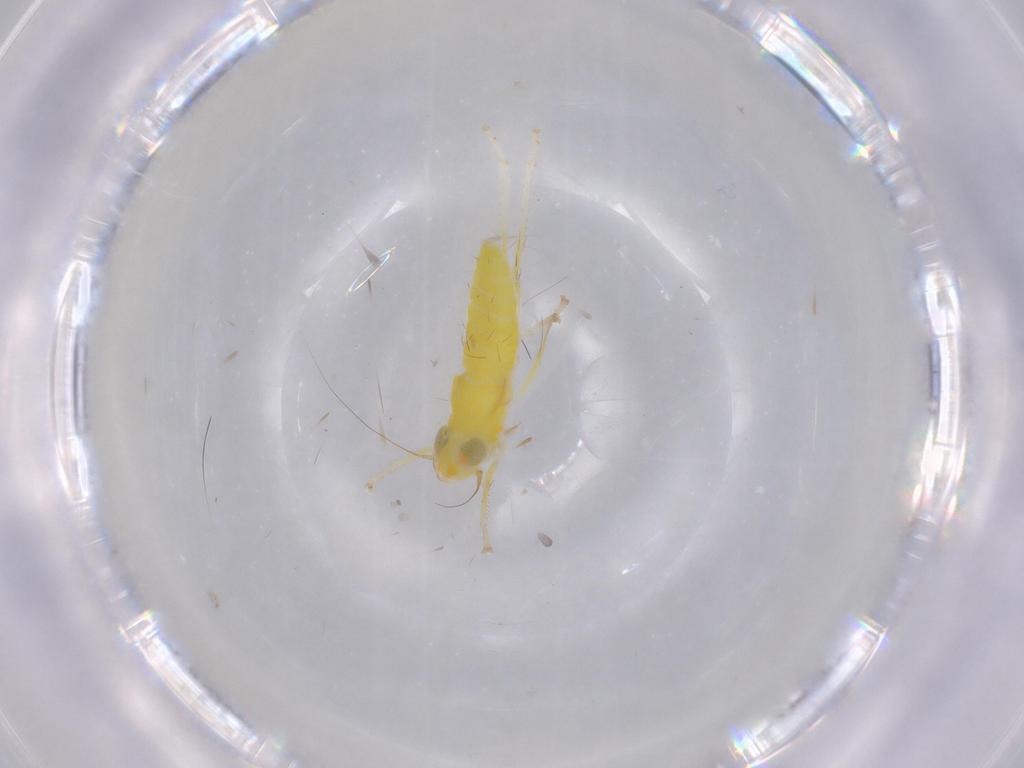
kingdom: Animalia
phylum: Arthropoda
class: Insecta
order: Hemiptera
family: Cicadellidae
